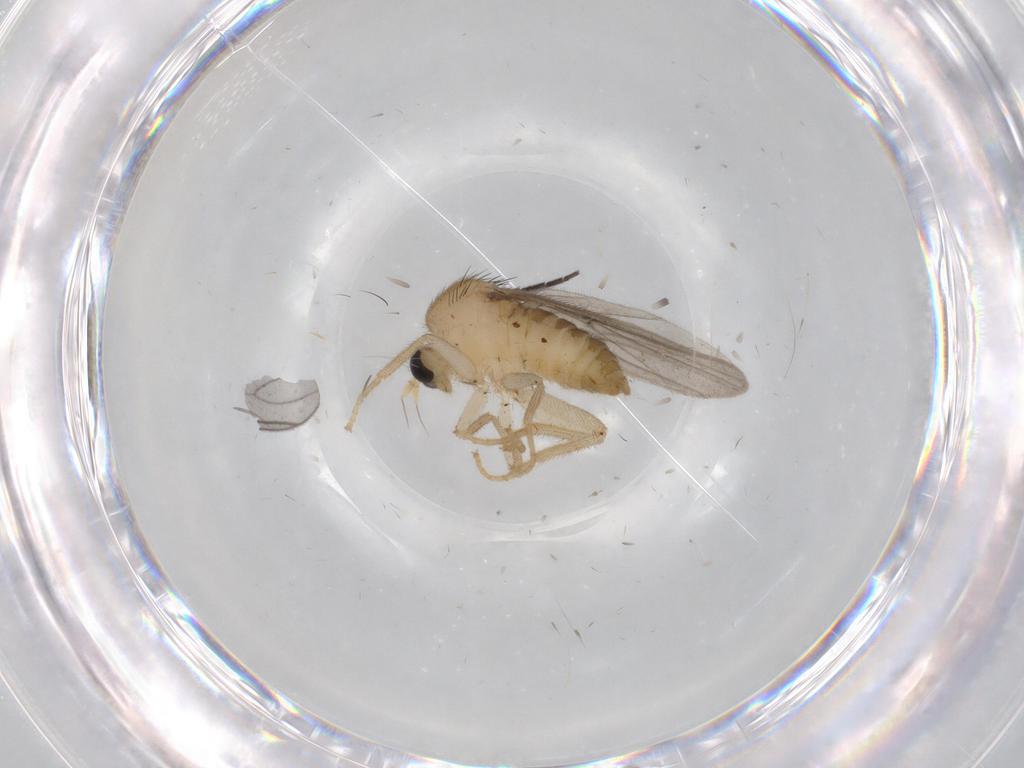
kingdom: Animalia
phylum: Arthropoda
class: Insecta
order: Diptera
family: Hybotidae
